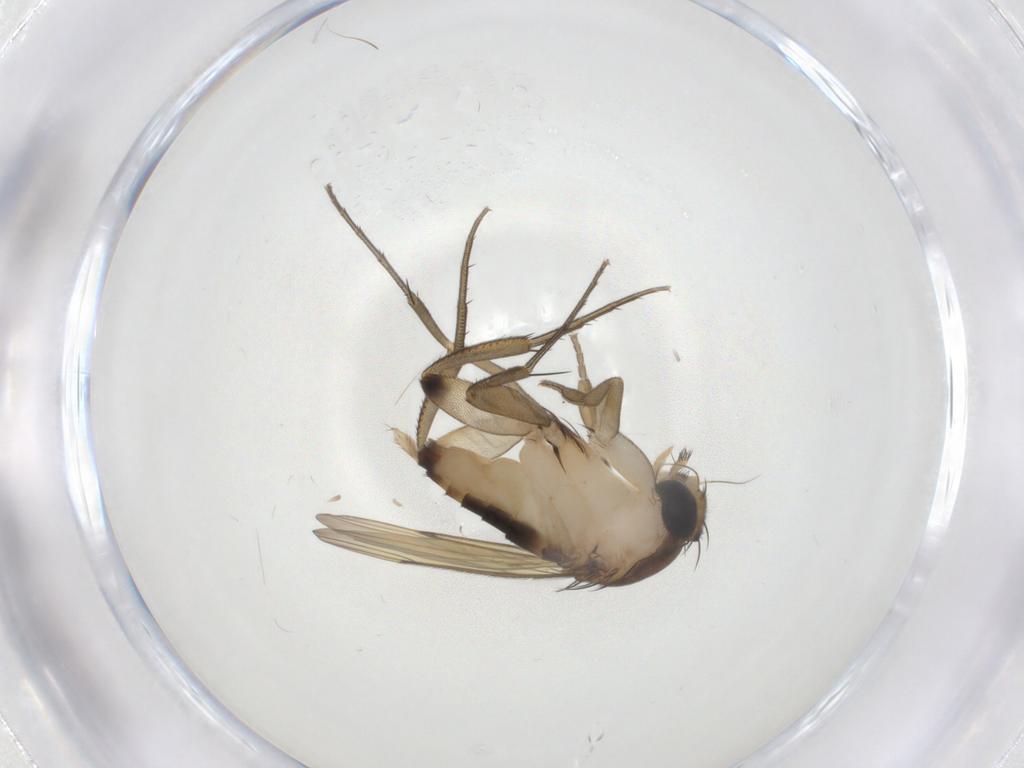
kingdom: Animalia
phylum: Arthropoda
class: Insecta
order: Diptera
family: Phoridae
